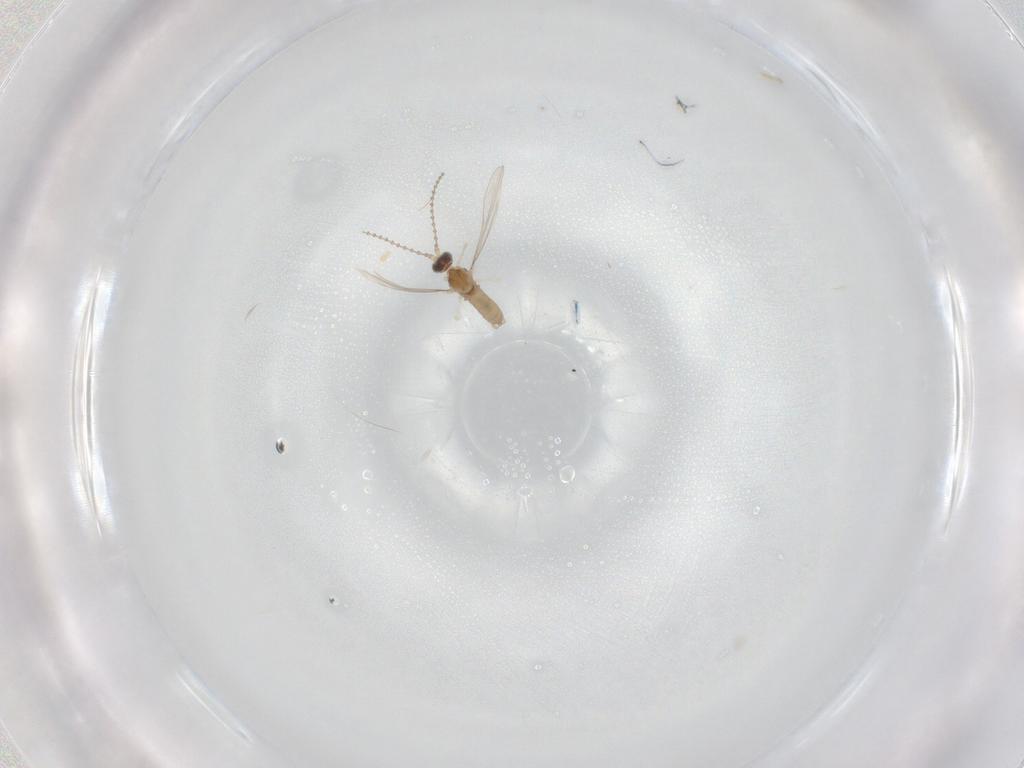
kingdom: Animalia
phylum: Arthropoda
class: Insecta
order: Diptera
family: Cecidomyiidae
